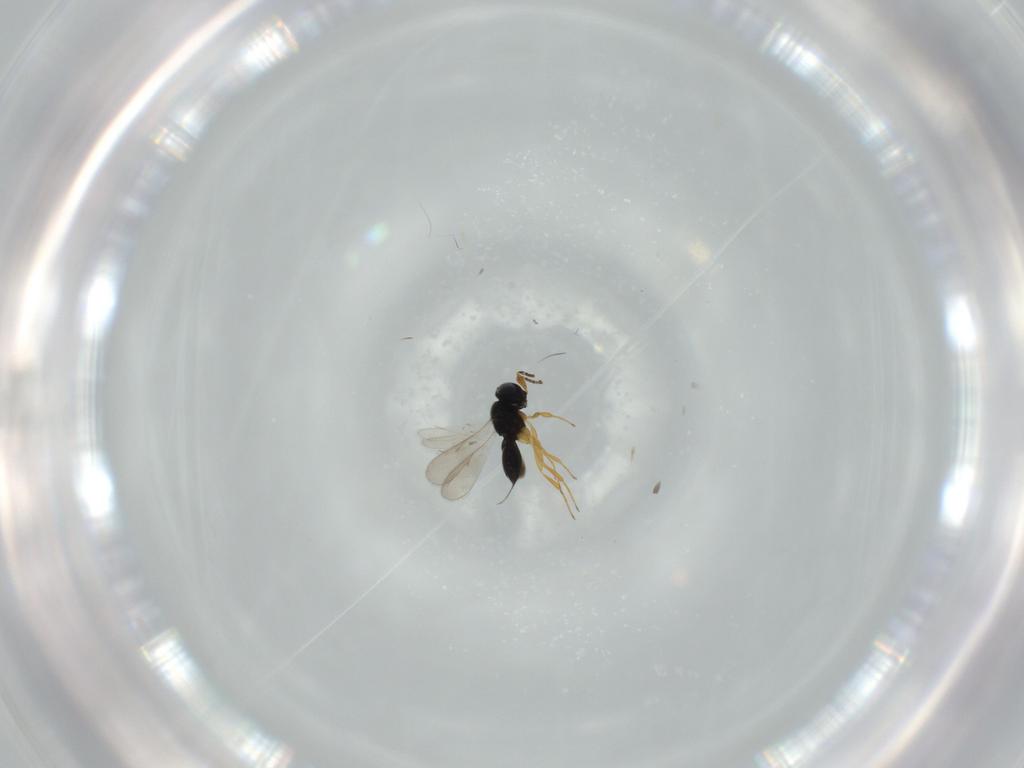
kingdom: Animalia
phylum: Arthropoda
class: Insecta
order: Hymenoptera
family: Scelionidae
